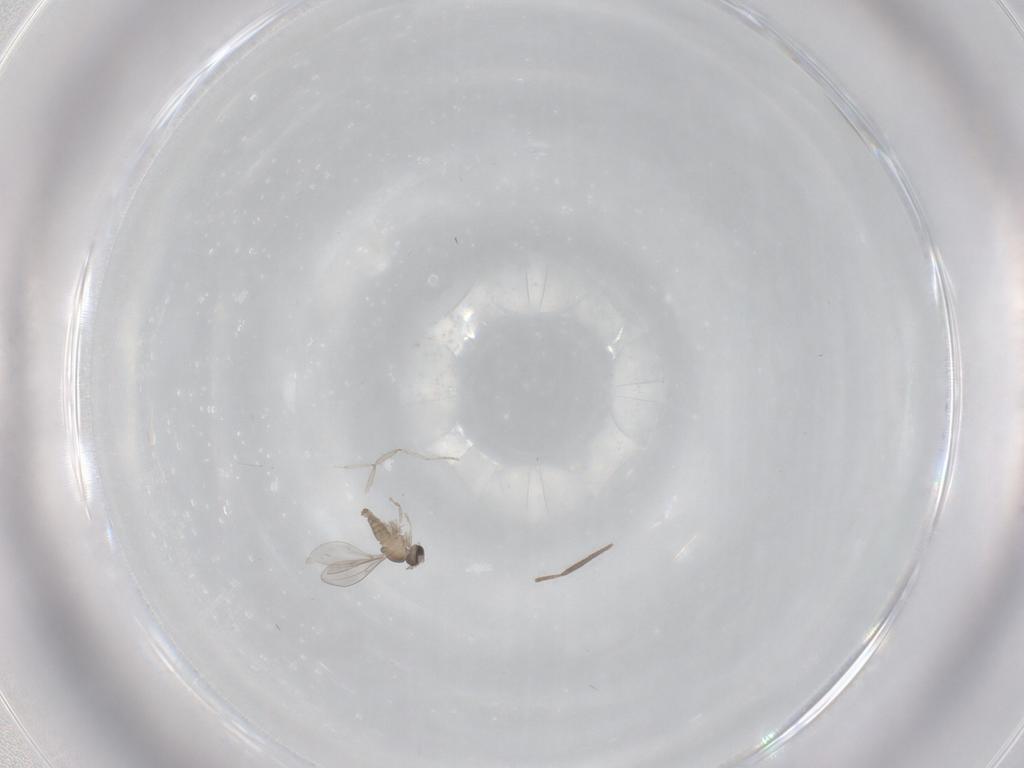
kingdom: Animalia
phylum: Arthropoda
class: Insecta
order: Diptera
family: Cecidomyiidae
